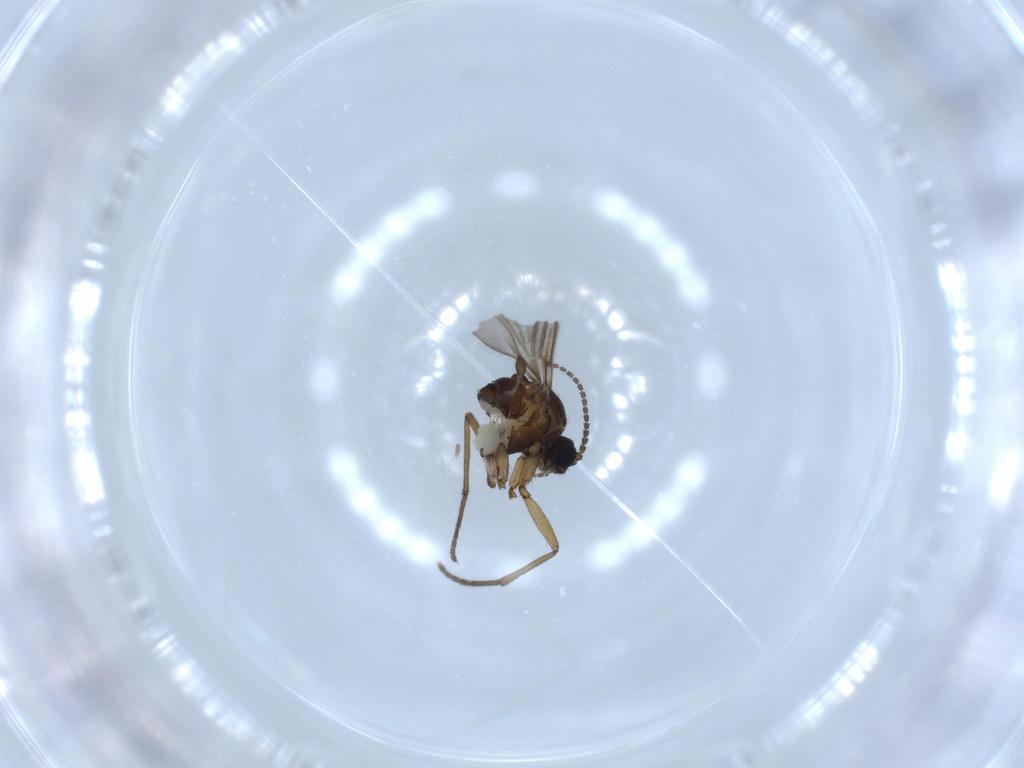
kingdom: Animalia
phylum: Arthropoda
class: Insecta
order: Diptera
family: Sciaridae
